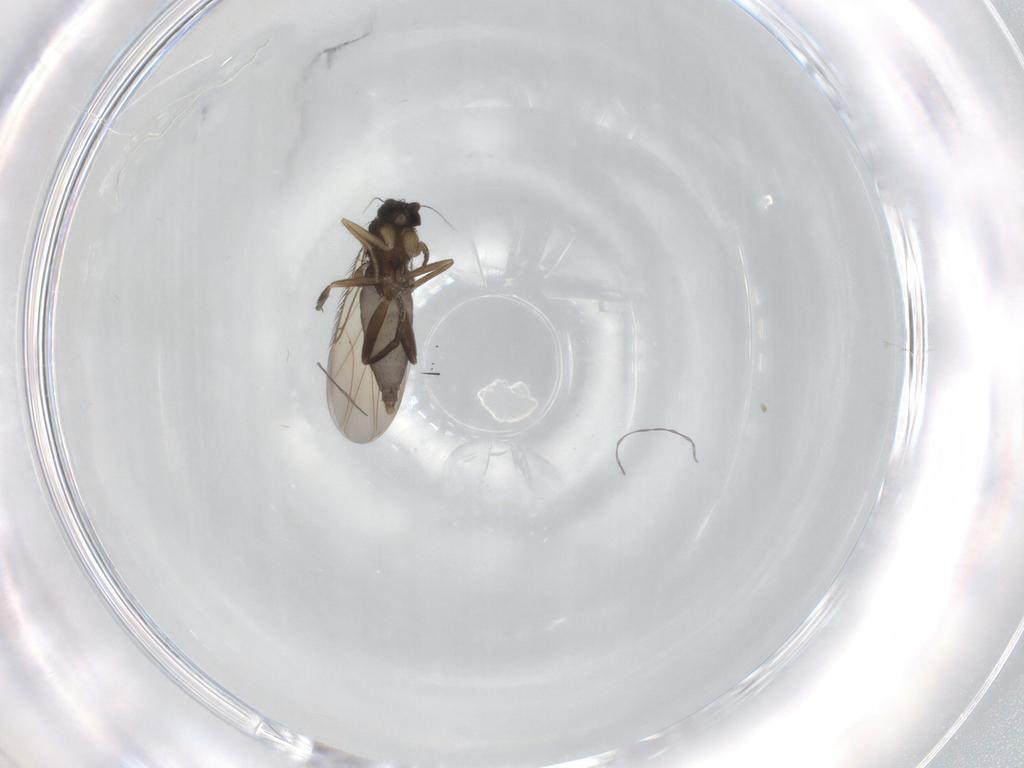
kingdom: Animalia
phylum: Arthropoda
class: Insecta
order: Diptera
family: Phoridae
